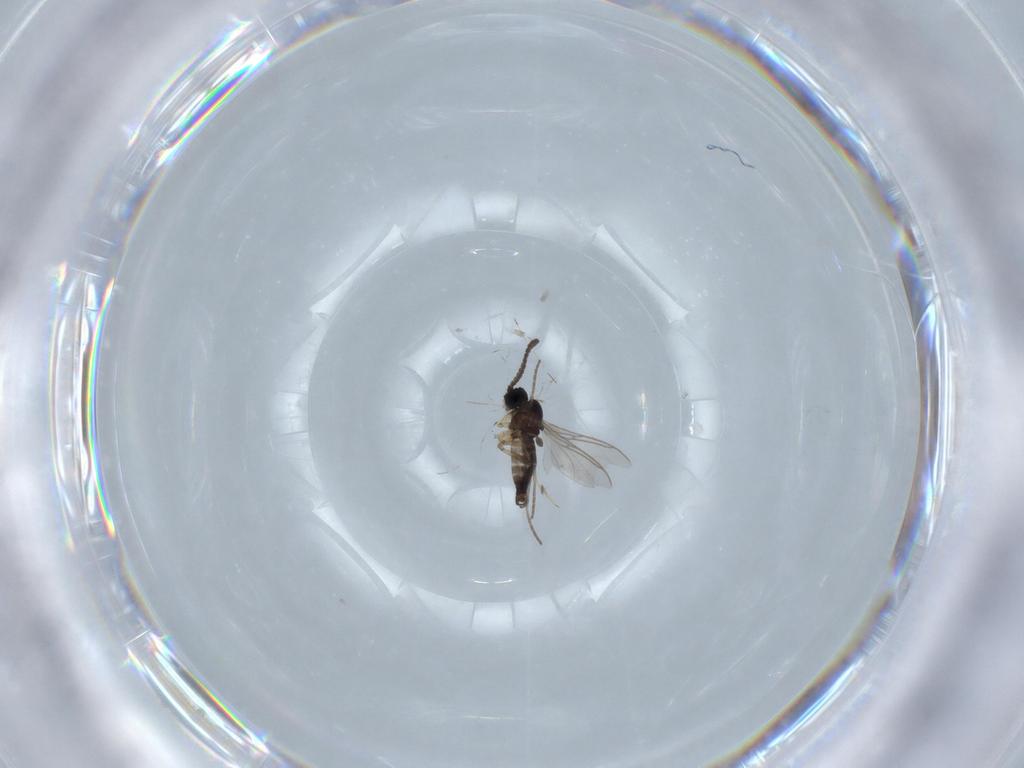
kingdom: Animalia
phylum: Arthropoda
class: Insecta
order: Diptera
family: Sciaridae
